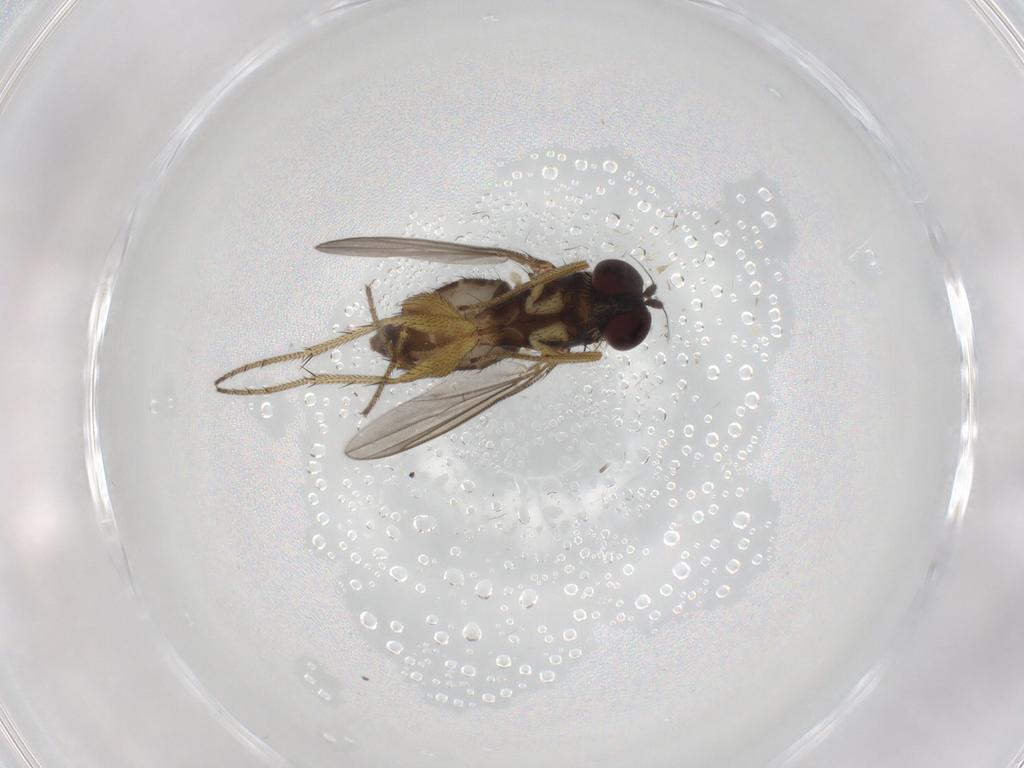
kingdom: Animalia
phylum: Arthropoda
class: Insecta
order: Diptera
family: Dolichopodidae
